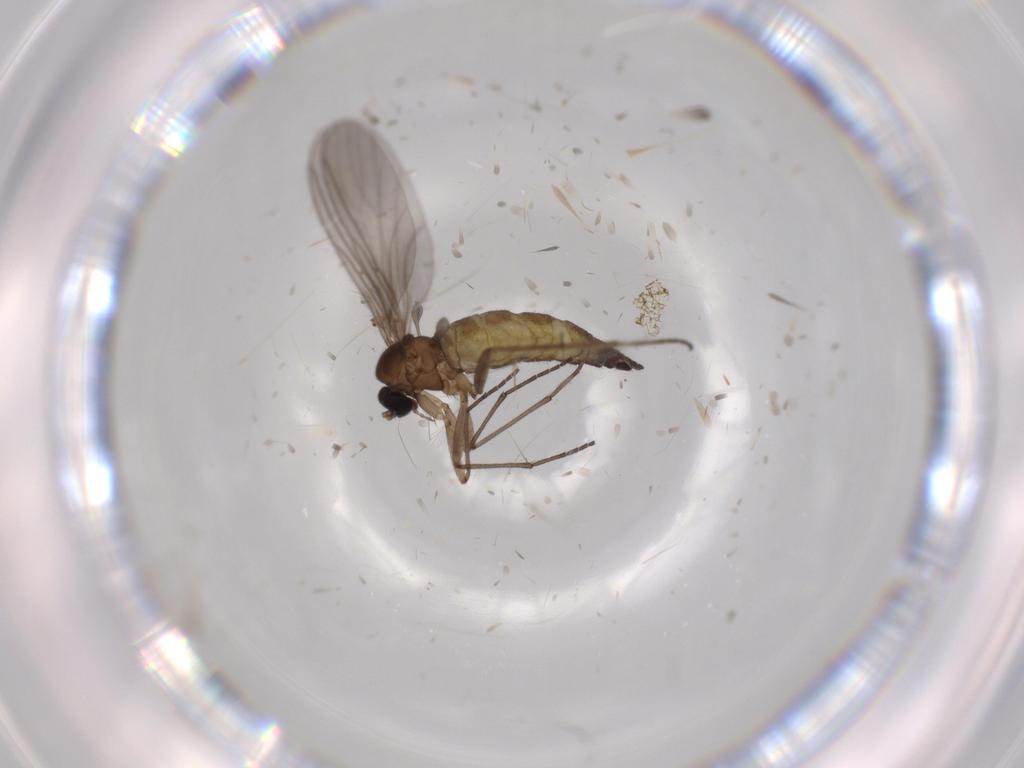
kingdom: Animalia
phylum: Arthropoda
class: Insecta
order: Diptera
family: Sciaridae
